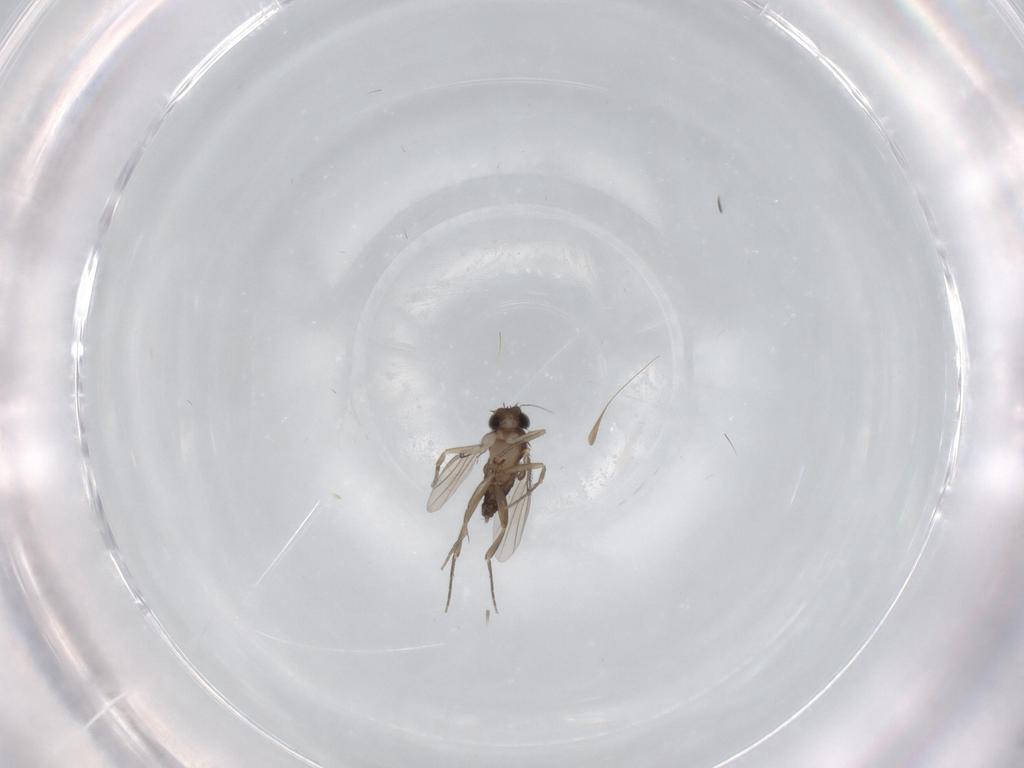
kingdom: Animalia
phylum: Arthropoda
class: Insecta
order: Diptera
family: Phoridae
